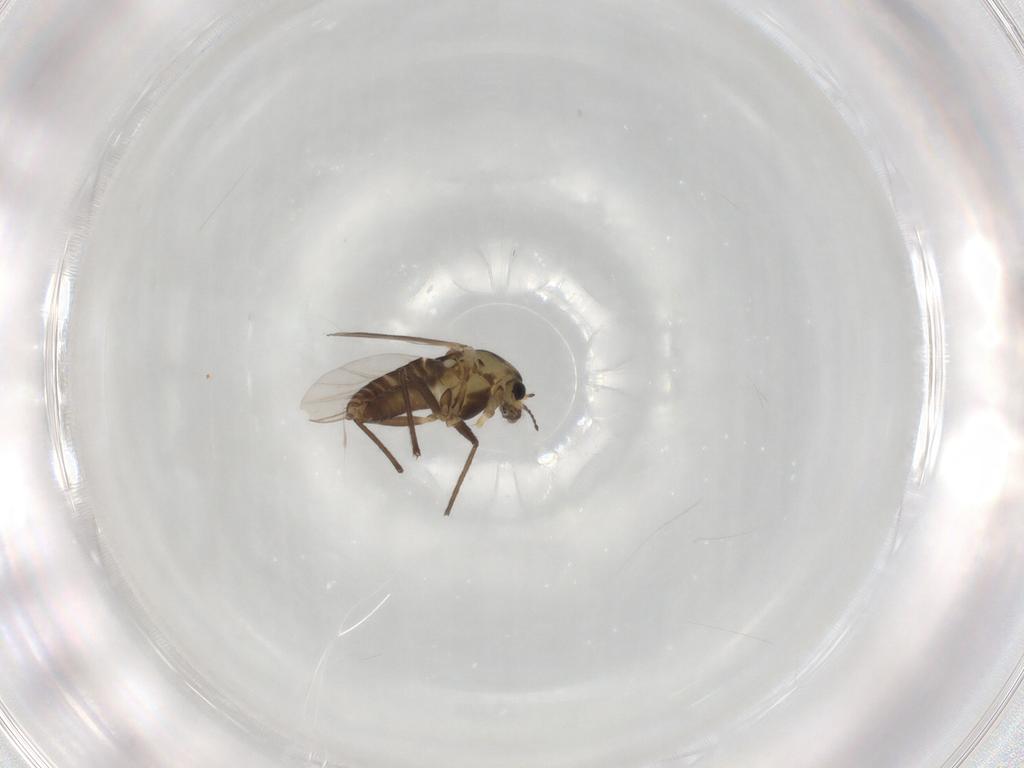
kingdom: Animalia
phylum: Arthropoda
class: Insecta
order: Diptera
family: Chironomidae
